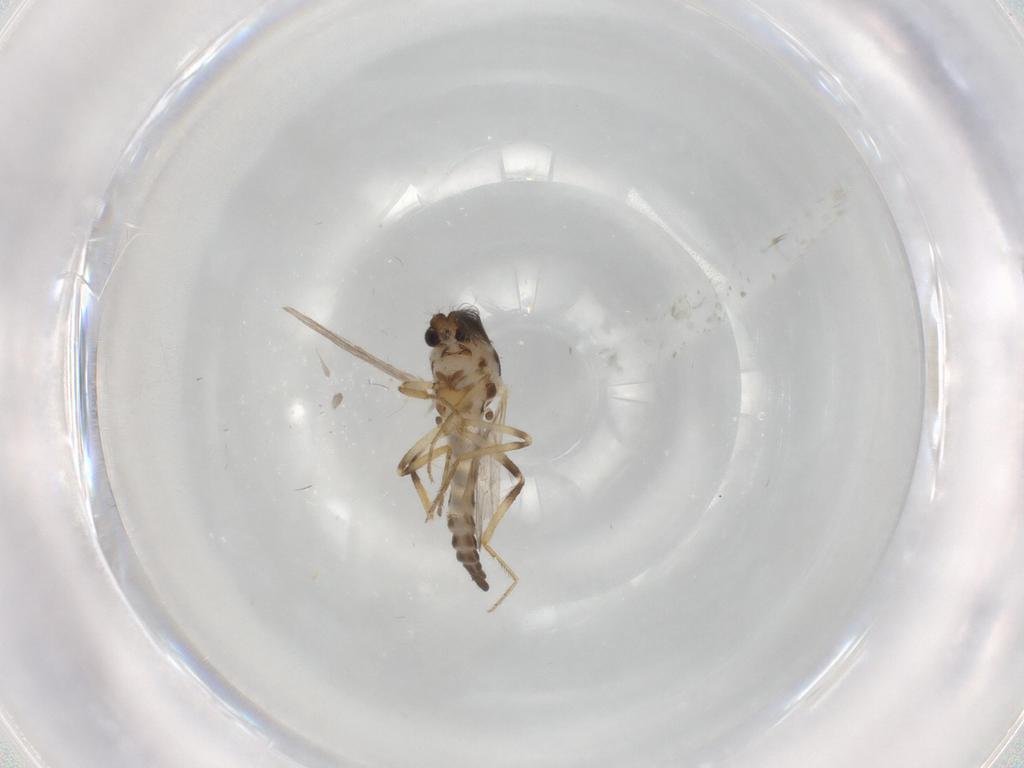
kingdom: Animalia
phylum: Arthropoda
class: Insecta
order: Diptera
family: Ceratopogonidae
